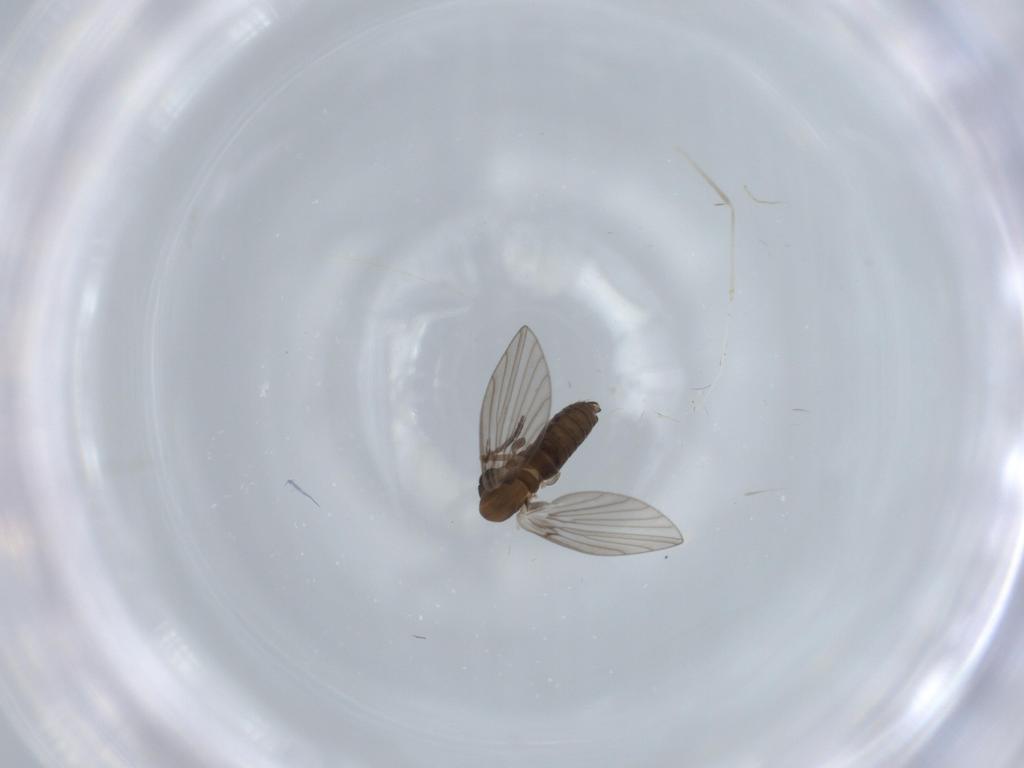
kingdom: Animalia
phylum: Arthropoda
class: Insecta
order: Diptera
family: Psychodidae
